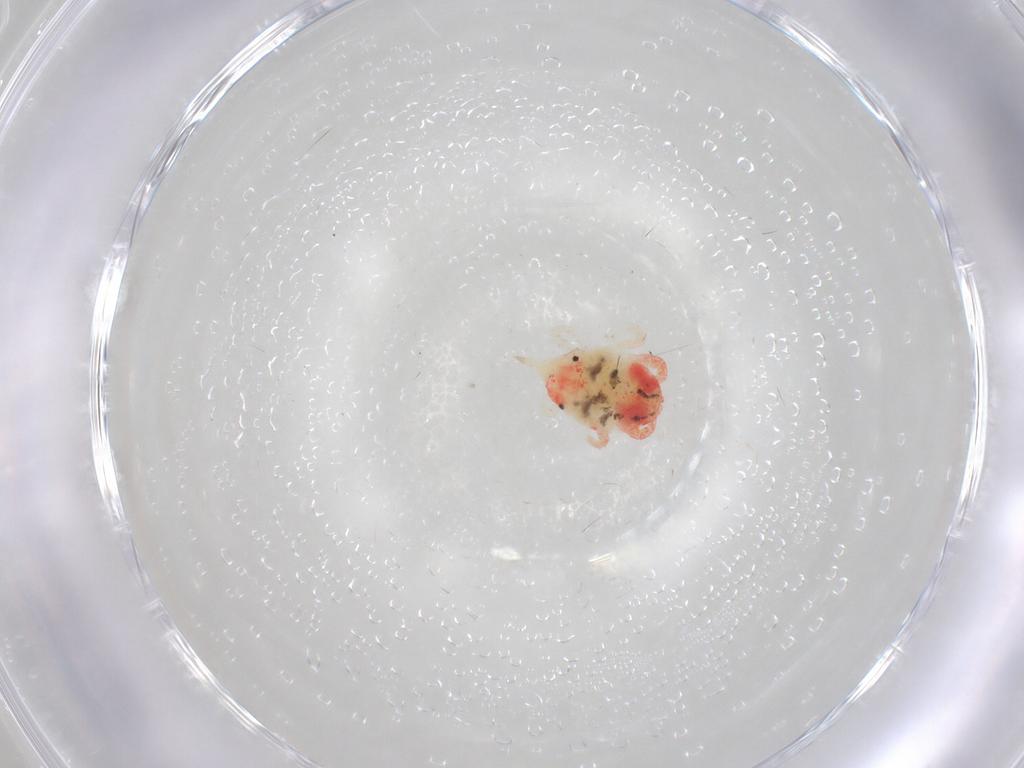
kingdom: Animalia
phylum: Arthropoda
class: Arachnida
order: Trombidiformes
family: Bdellidae
